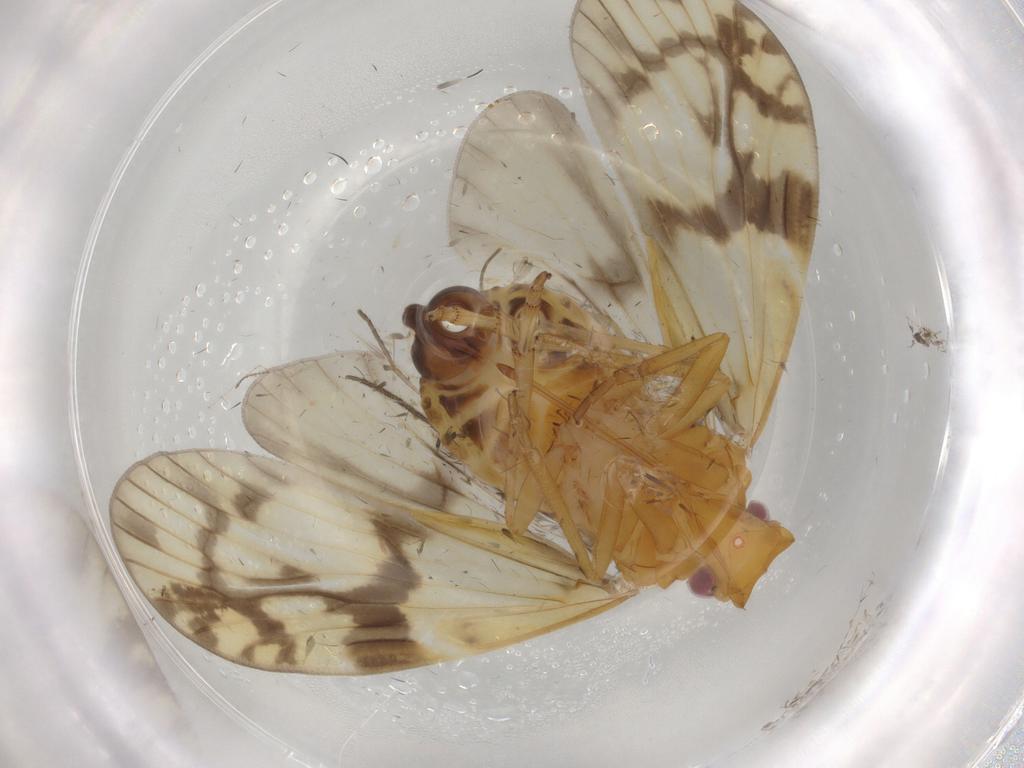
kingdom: Animalia
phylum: Arthropoda
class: Insecta
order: Hemiptera
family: Cixiidae
